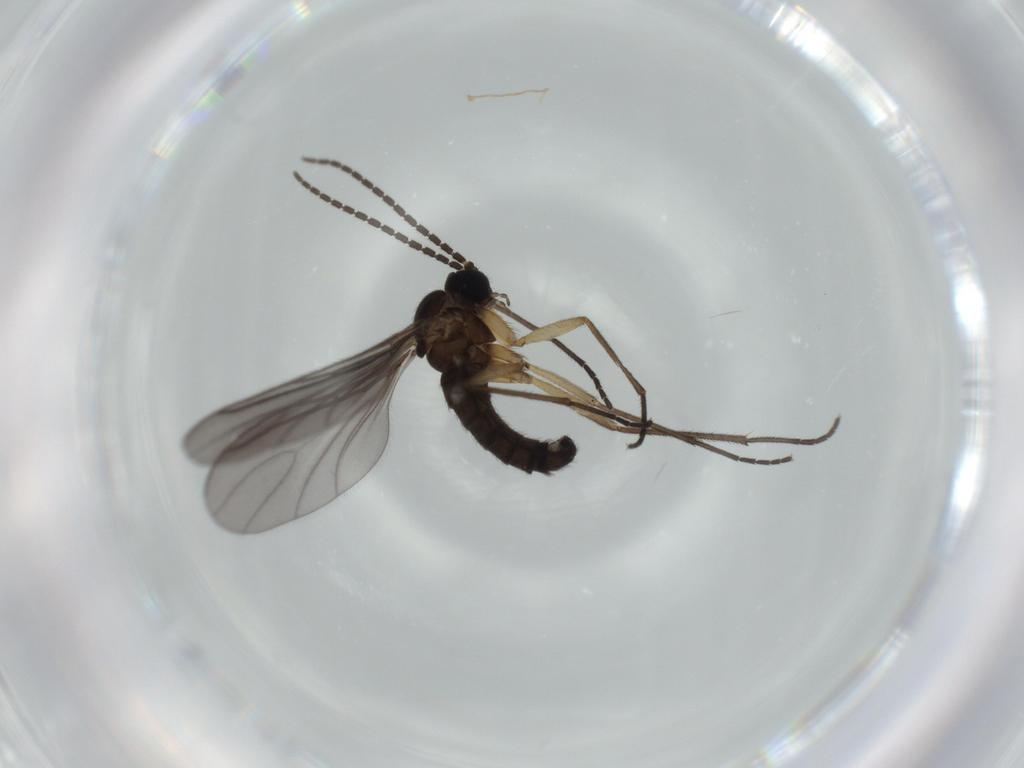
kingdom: Animalia
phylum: Arthropoda
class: Insecta
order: Diptera
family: Sciaridae
